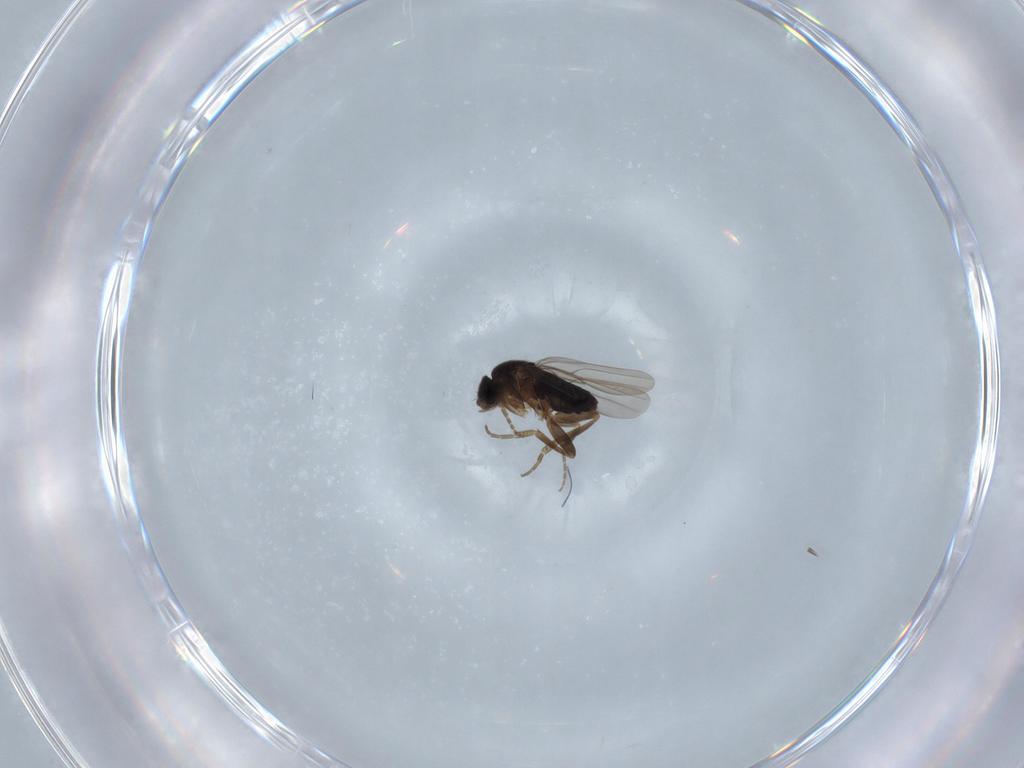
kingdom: Animalia
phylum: Arthropoda
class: Insecta
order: Diptera
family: Phoridae
